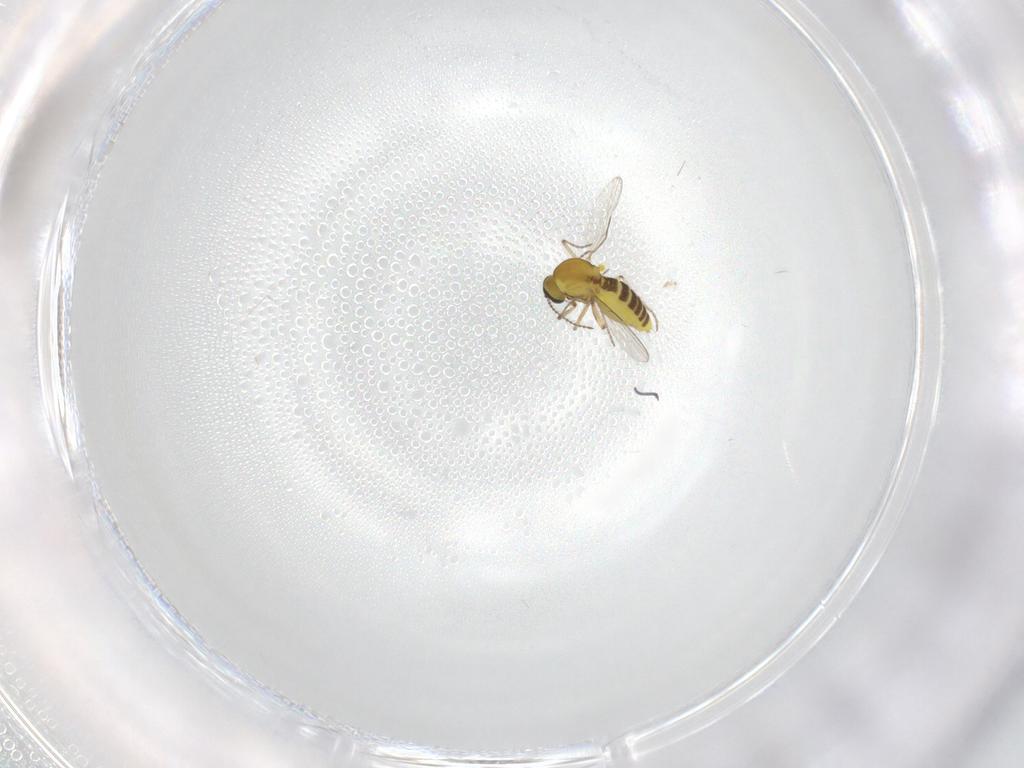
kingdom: Animalia
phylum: Arthropoda
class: Insecta
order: Diptera
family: Ceratopogonidae
